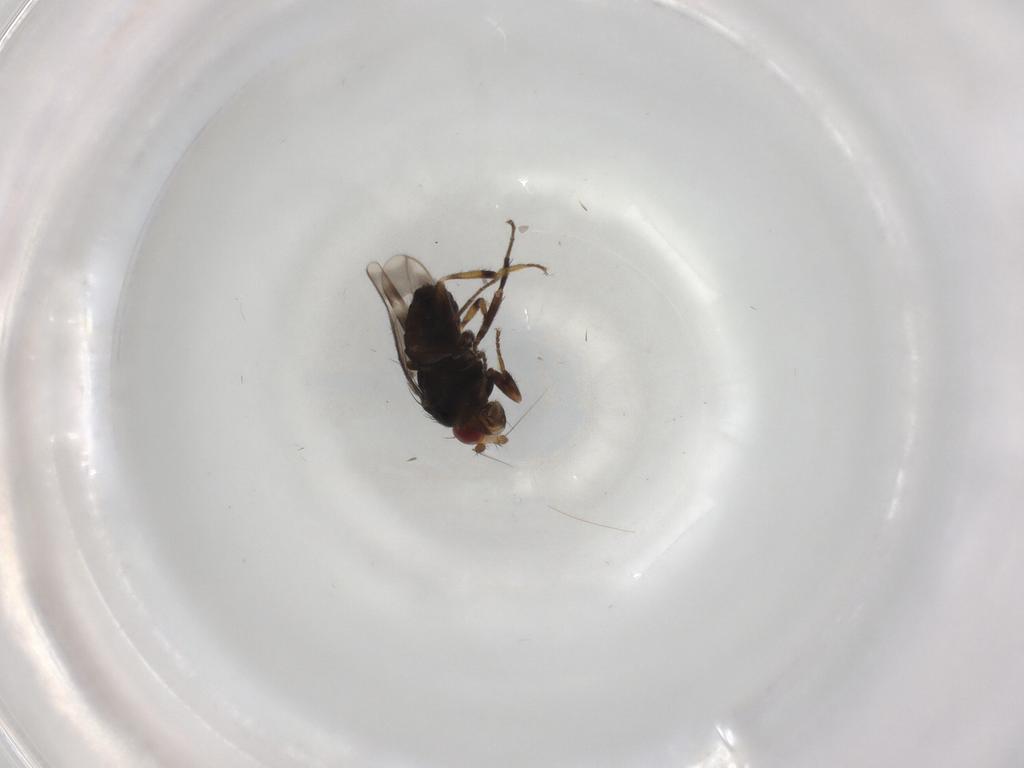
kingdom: Animalia
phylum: Arthropoda
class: Insecta
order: Diptera
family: Cecidomyiidae
